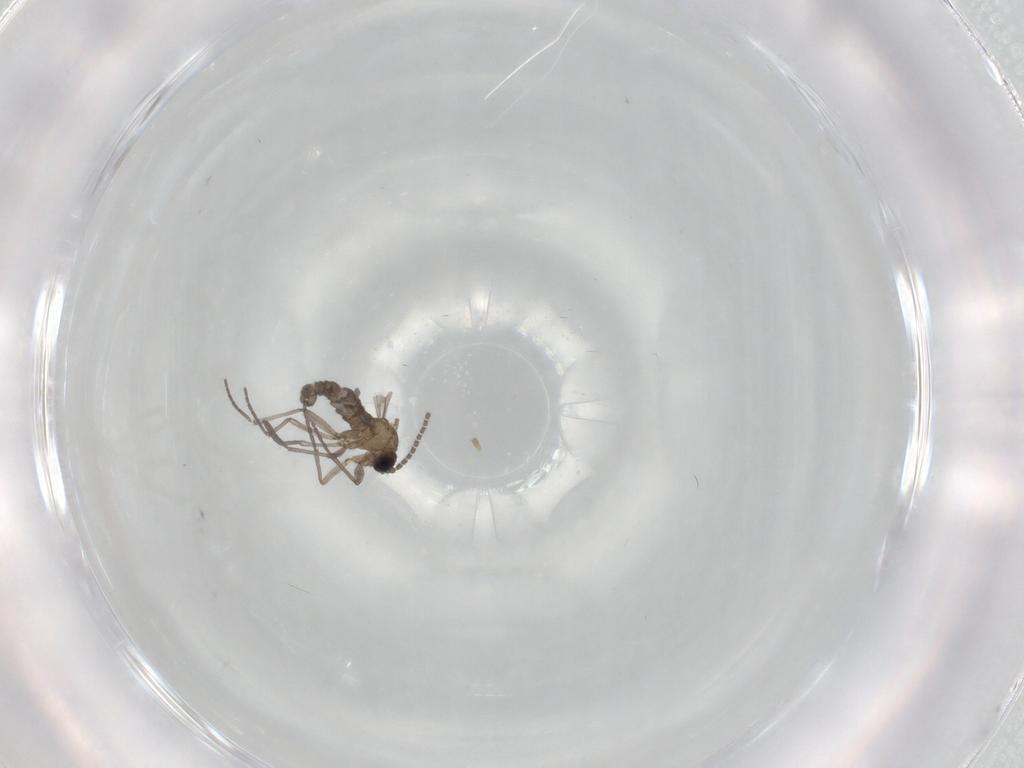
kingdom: Animalia
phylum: Arthropoda
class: Insecta
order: Diptera
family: Sciaridae
